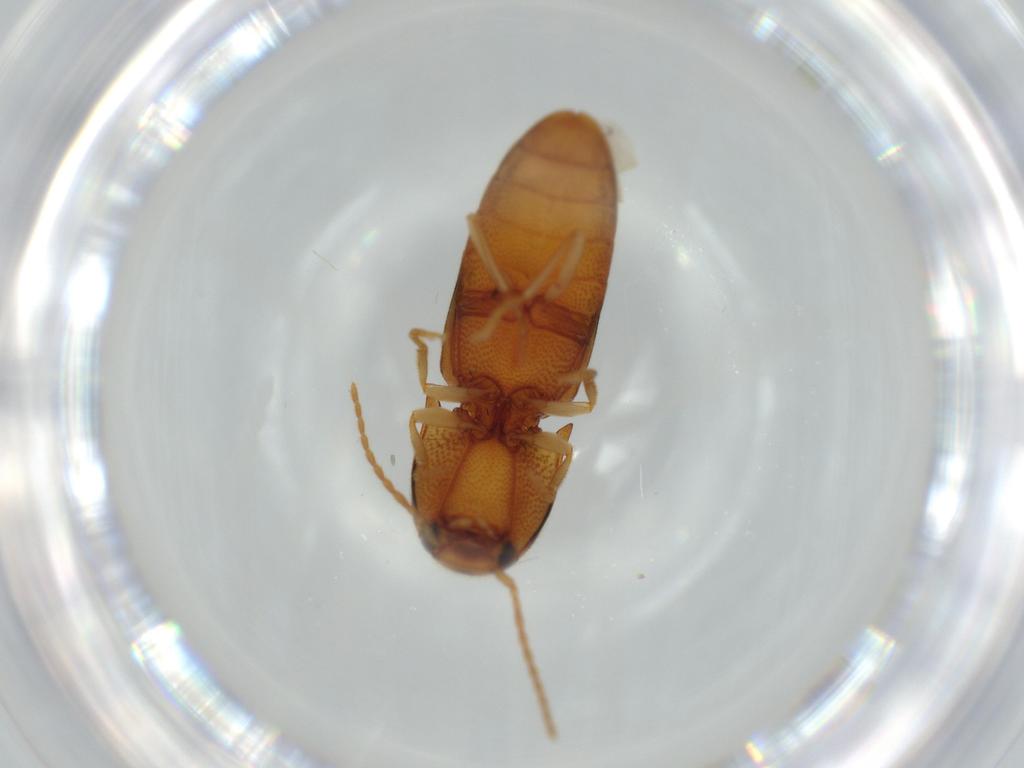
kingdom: Animalia
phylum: Arthropoda
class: Insecta
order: Coleoptera
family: Elateridae
